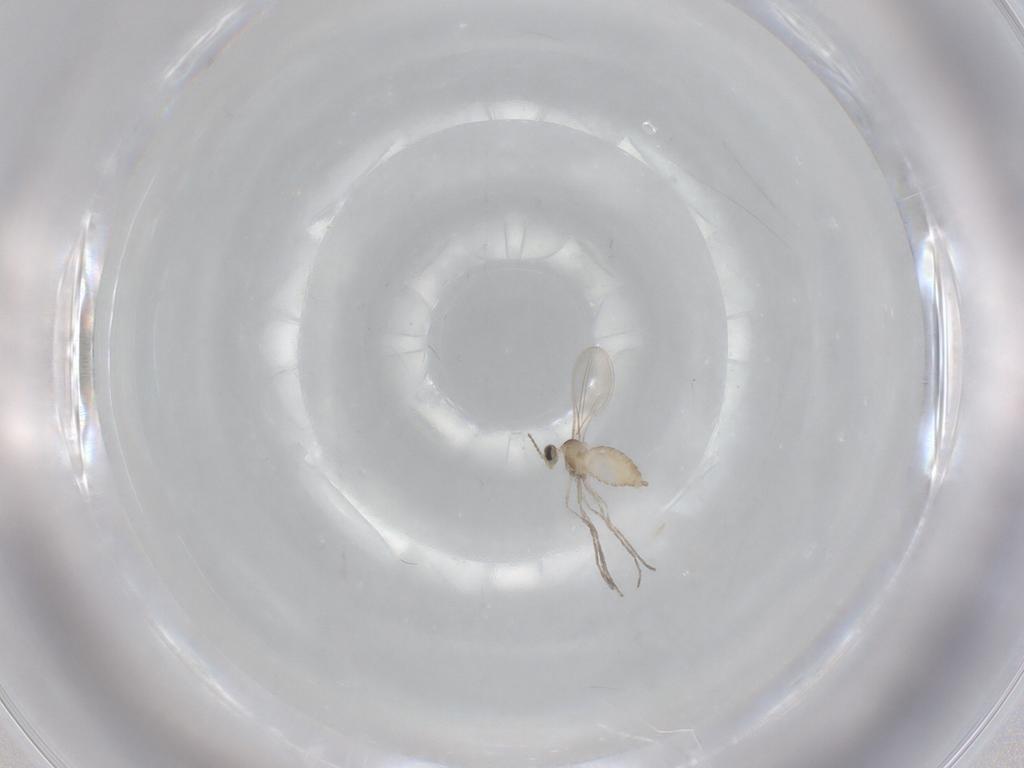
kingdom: Animalia
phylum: Arthropoda
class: Insecta
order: Diptera
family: Cecidomyiidae
